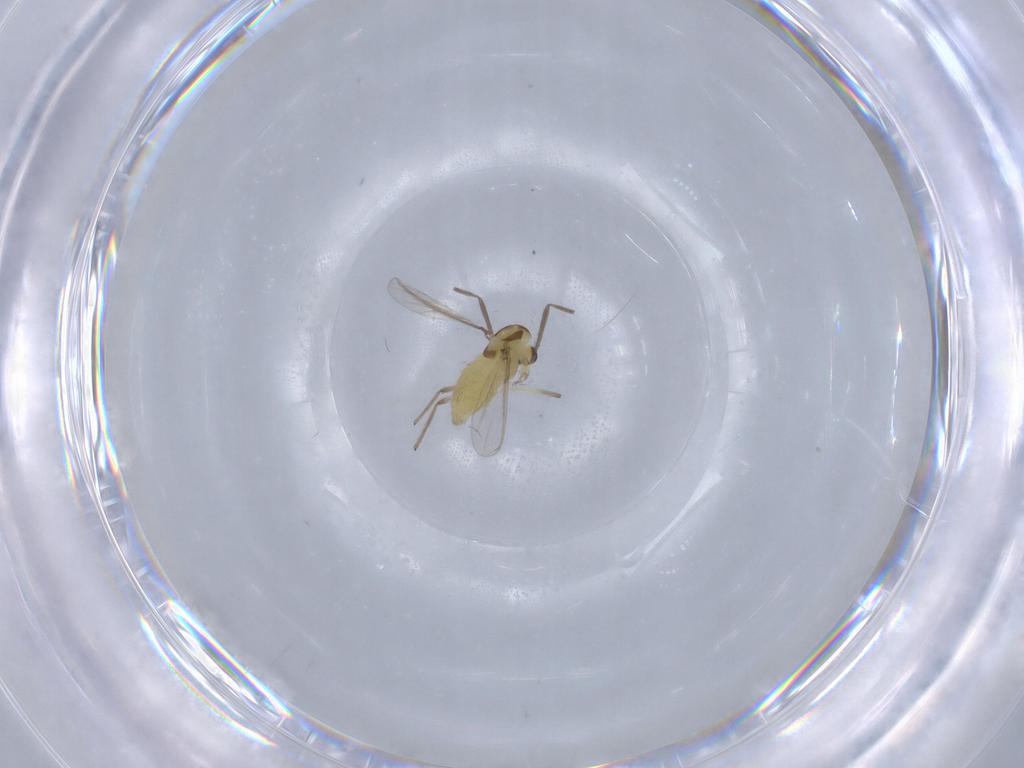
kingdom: Animalia
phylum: Arthropoda
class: Insecta
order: Diptera
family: Chironomidae
